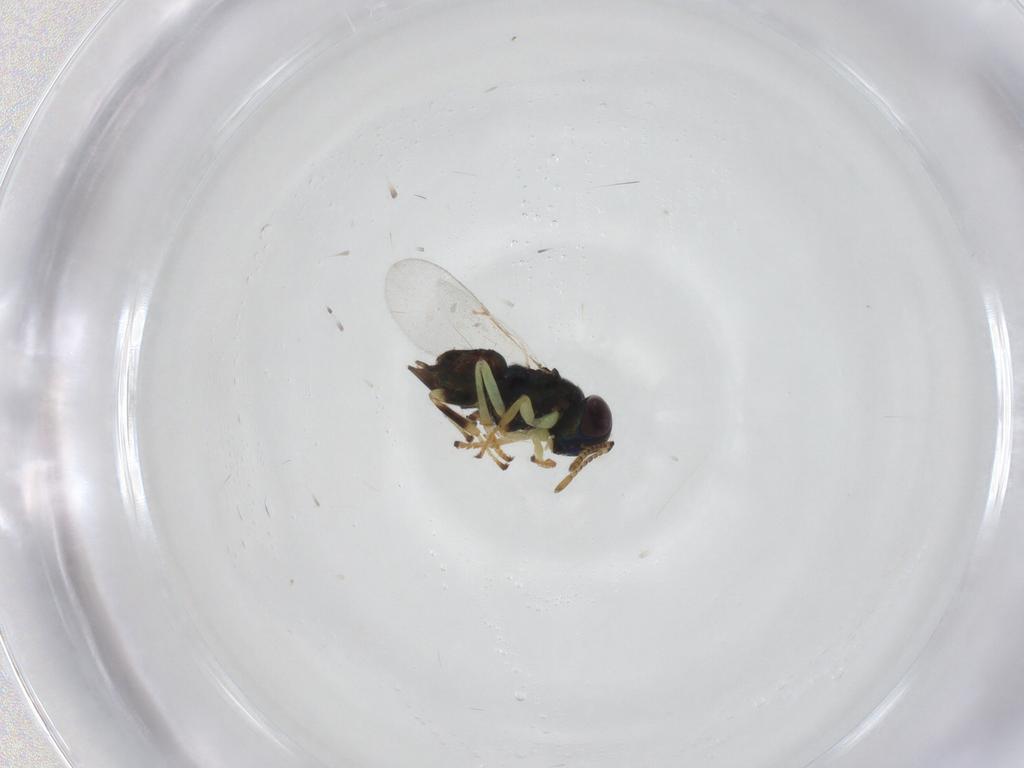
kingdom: Animalia
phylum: Arthropoda
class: Insecta
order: Hymenoptera
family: Encyrtidae
